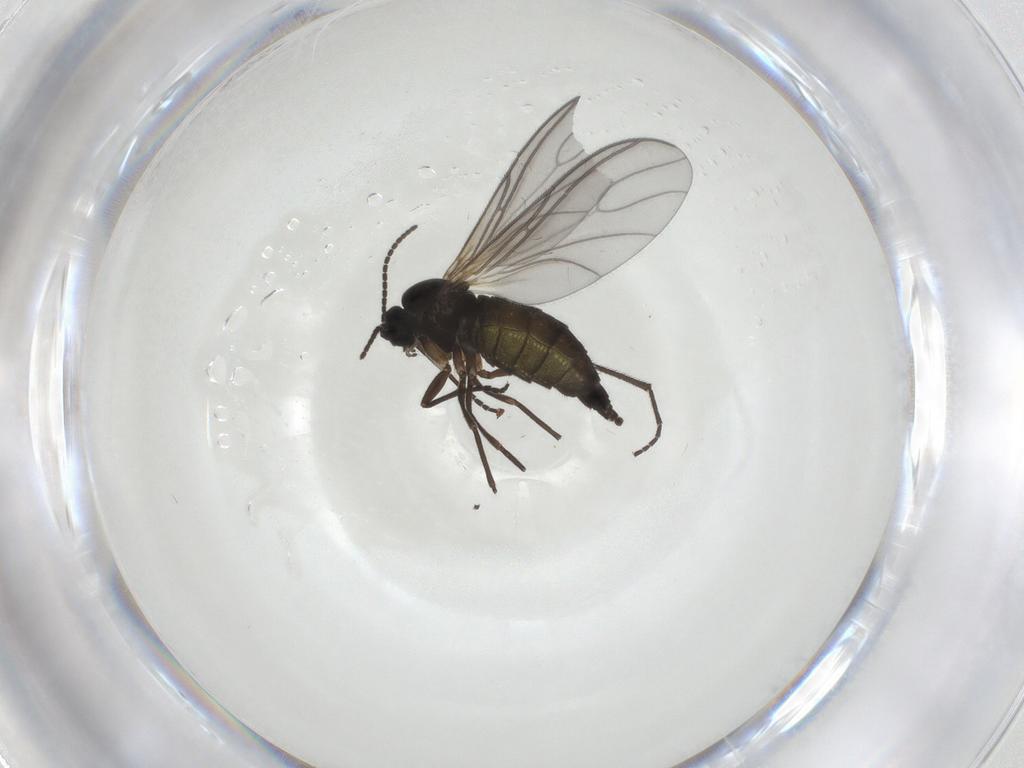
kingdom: Animalia
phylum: Arthropoda
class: Insecta
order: Diptera
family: Sciaridae
